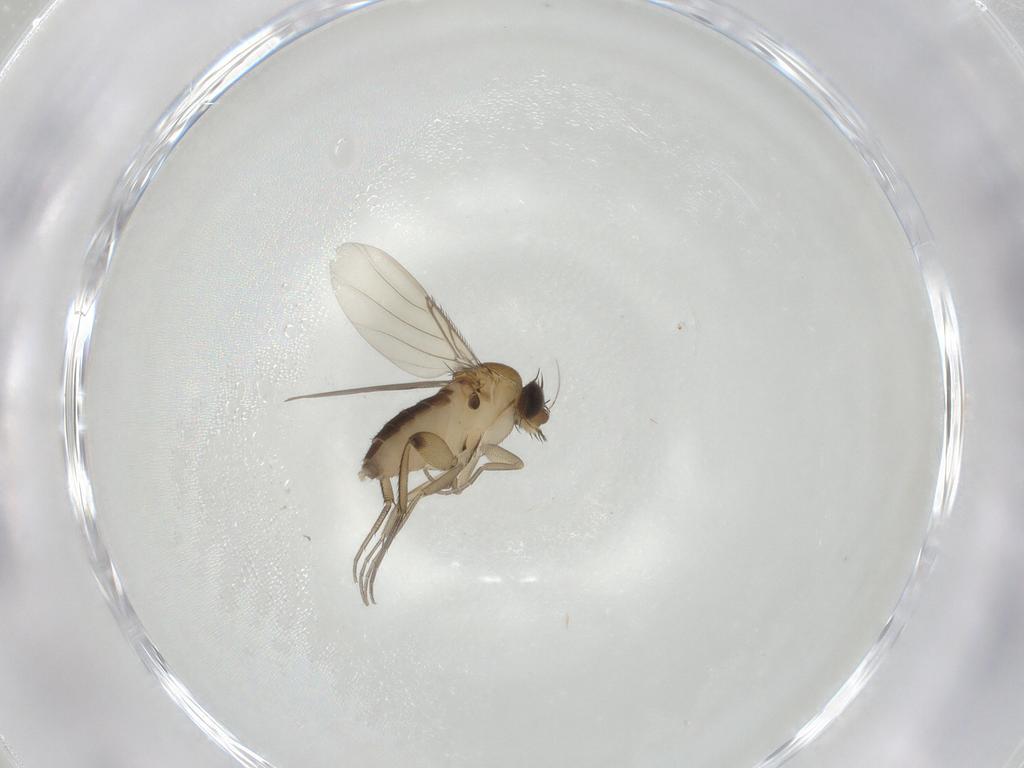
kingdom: Animalia
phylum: Arthropoda
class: Insecta
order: Diptera
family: Phoridae
